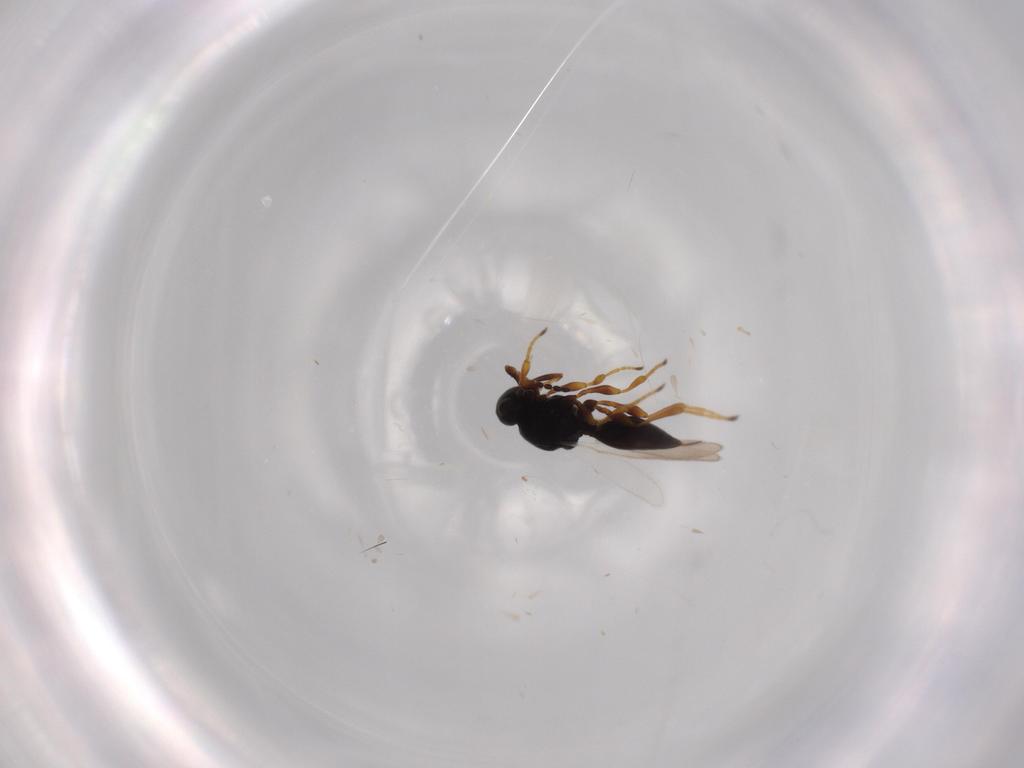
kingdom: Animalia
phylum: Arthropoda
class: Insecta
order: Hymenoptera
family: Platygastridae
